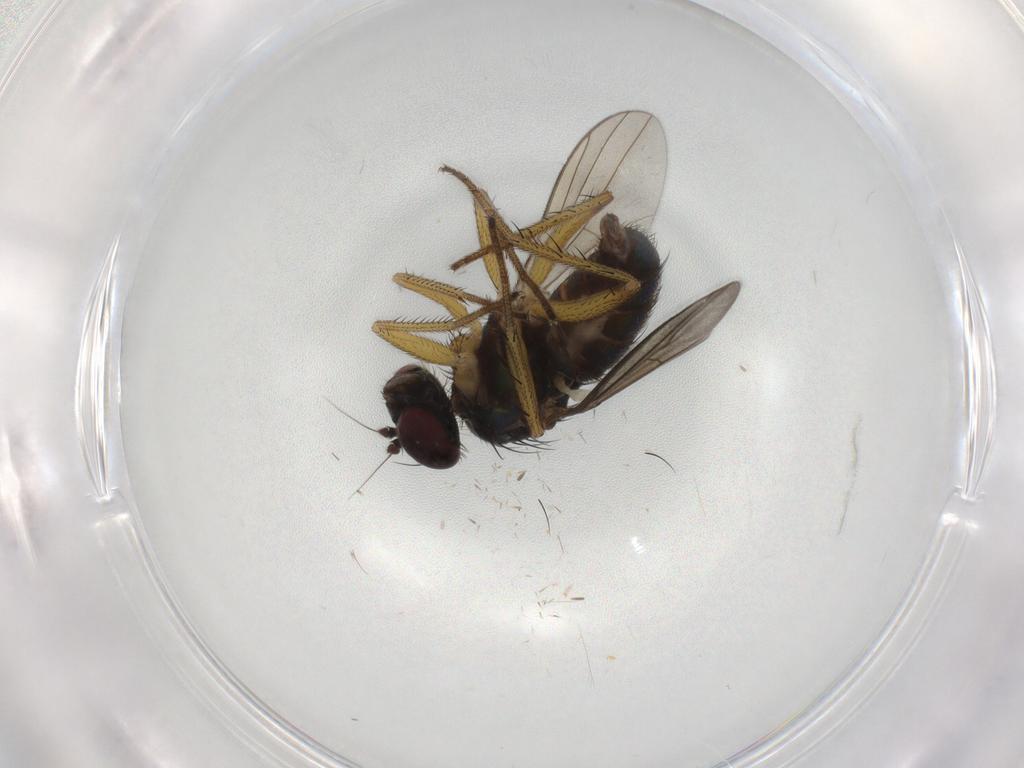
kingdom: Animalia
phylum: Arthropoda
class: Insecta
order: Diptera
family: Dolichopodidae
